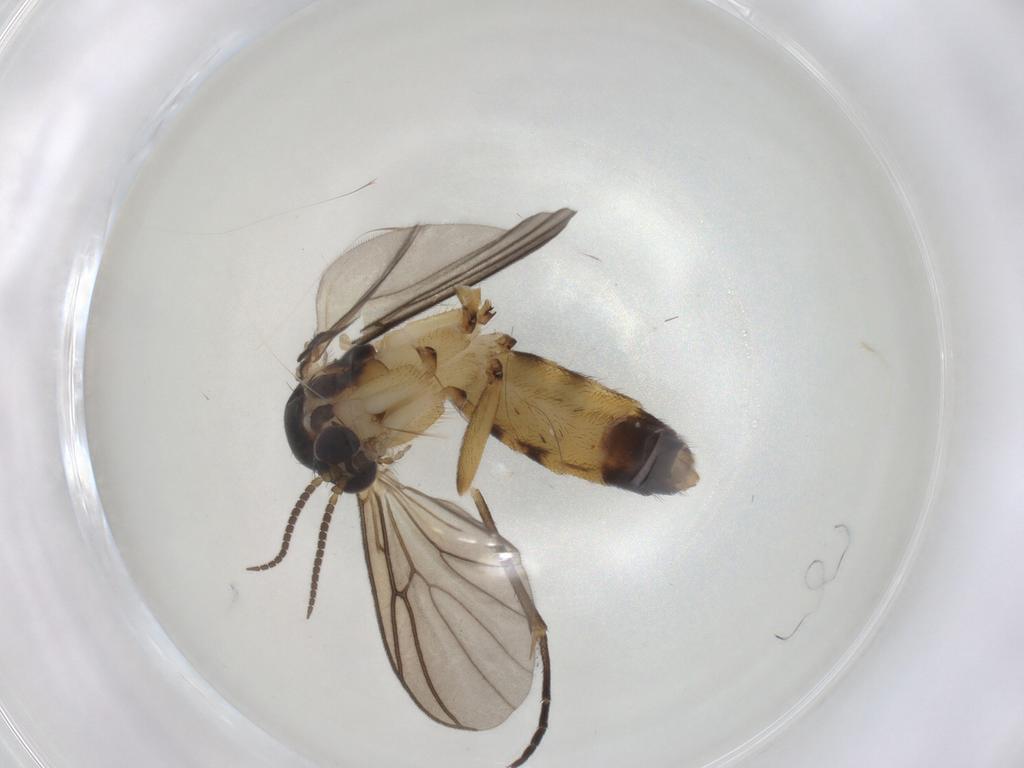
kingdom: Animalia
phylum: Arthropoda
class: Insecta
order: Diptera
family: Mycetophilidae
